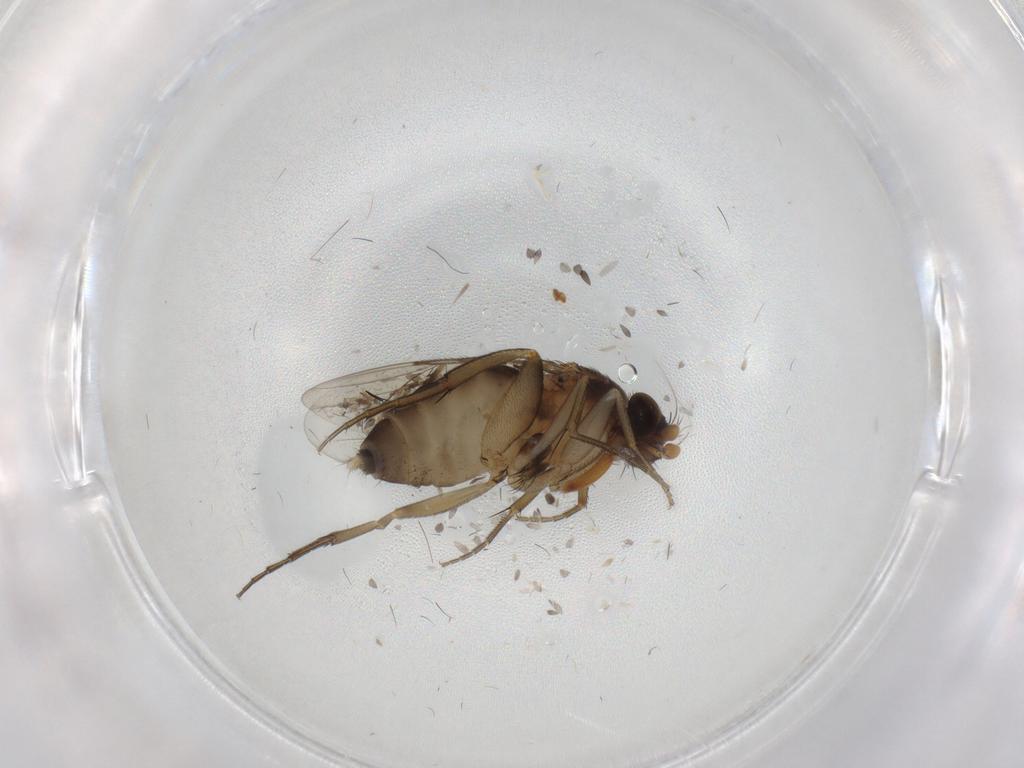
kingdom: Animalia
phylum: Arthropoda
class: Insecta
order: Diptera
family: Phoridae
